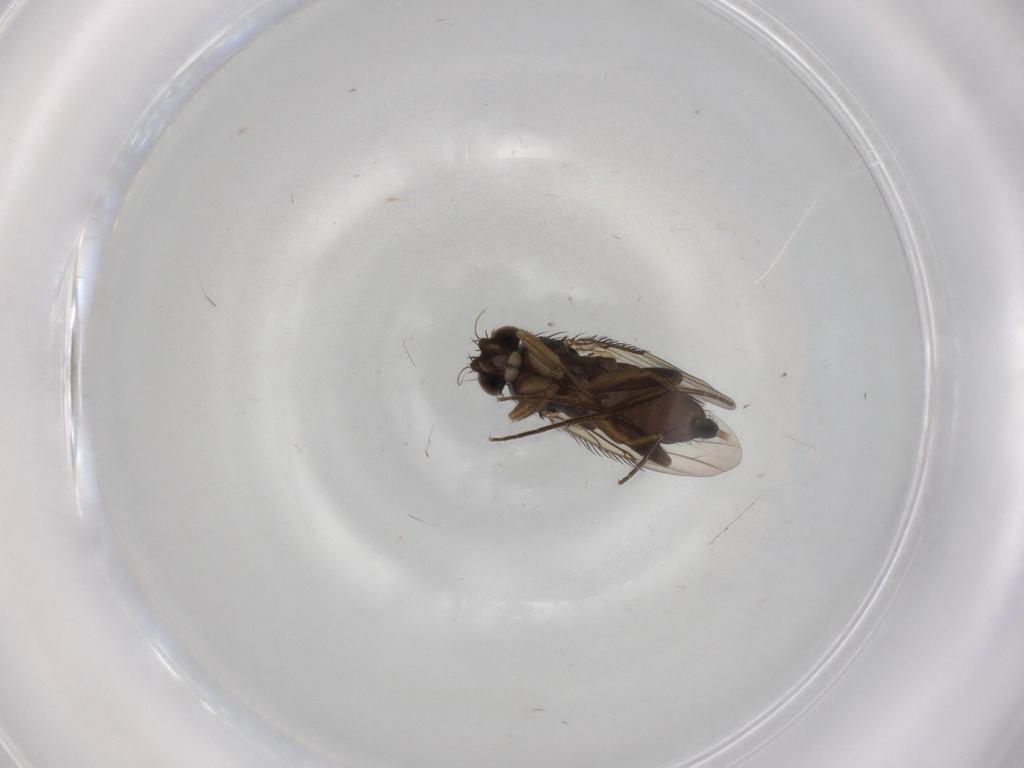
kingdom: Animalia
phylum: Arthropoda
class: Insecta
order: Diptera
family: Phoridae
